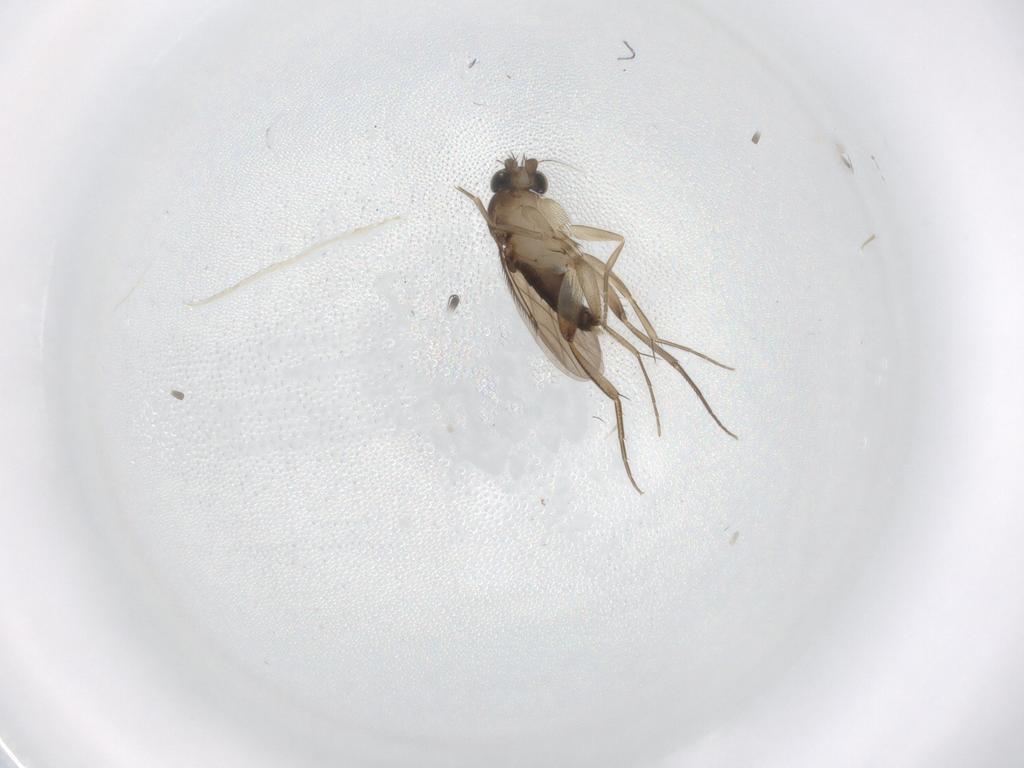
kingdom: Animalia
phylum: Arthropoda
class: Insecta
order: Diptera
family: Phoridae
